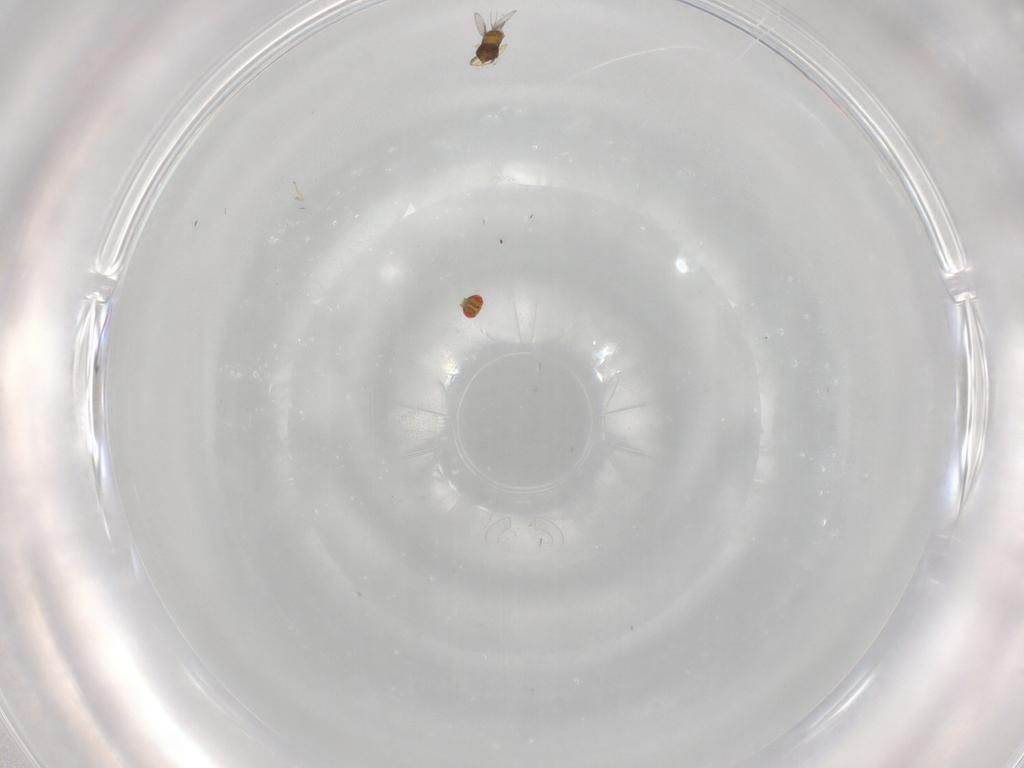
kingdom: Animalia
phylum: Arthropoda
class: Insecta
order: Hymenoptera
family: Trichogrammatidae
